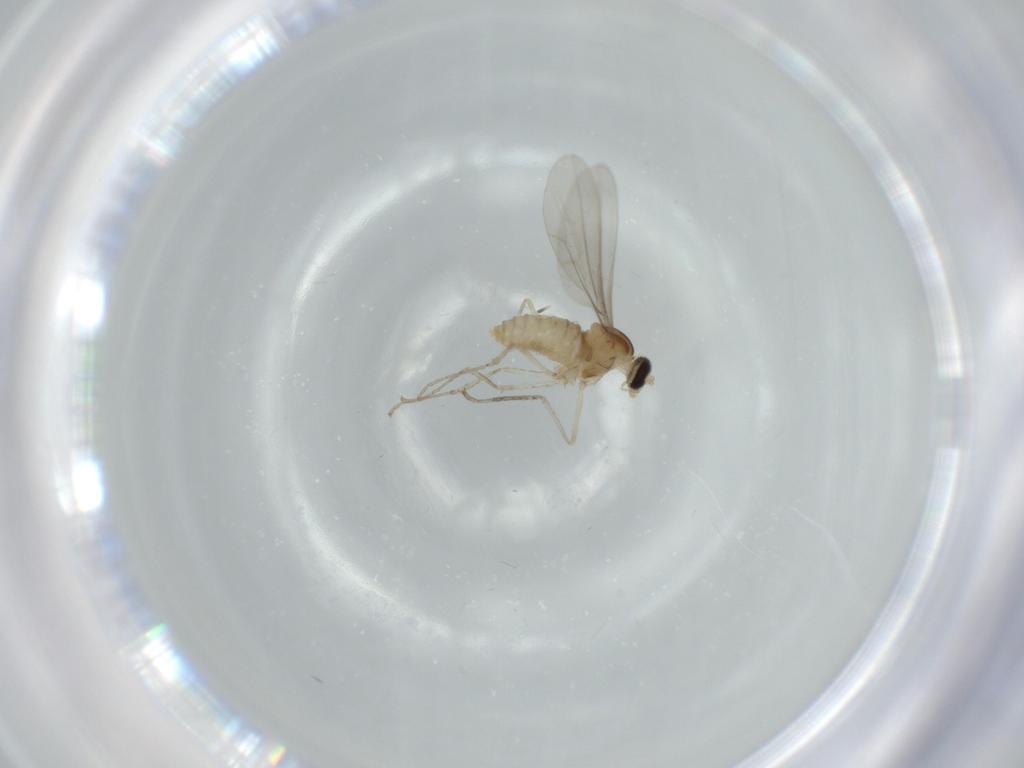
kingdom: Animalia
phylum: Arthropoda
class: Insecta
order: Diptera
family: Cecidomyiidae
